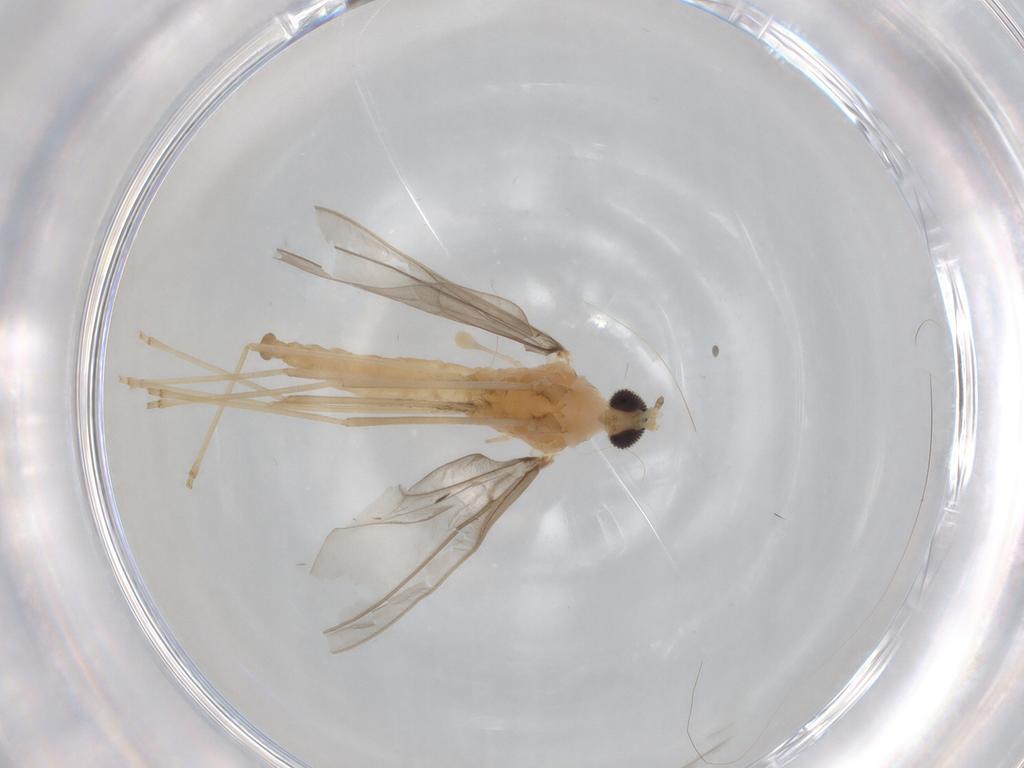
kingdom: Animalia
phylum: Arthropoda
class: Insecta
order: Diptera
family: Cecidomyiidae
